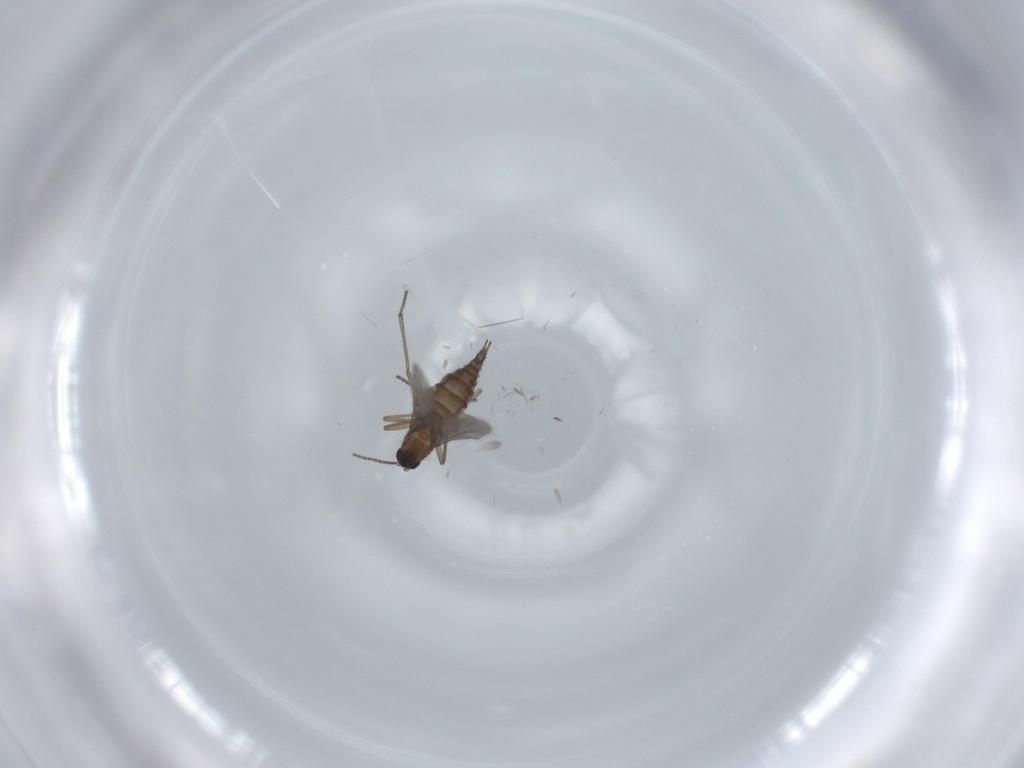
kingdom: Animalia
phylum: Arthropoda
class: Insecta
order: Diptera
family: Sciaridae
